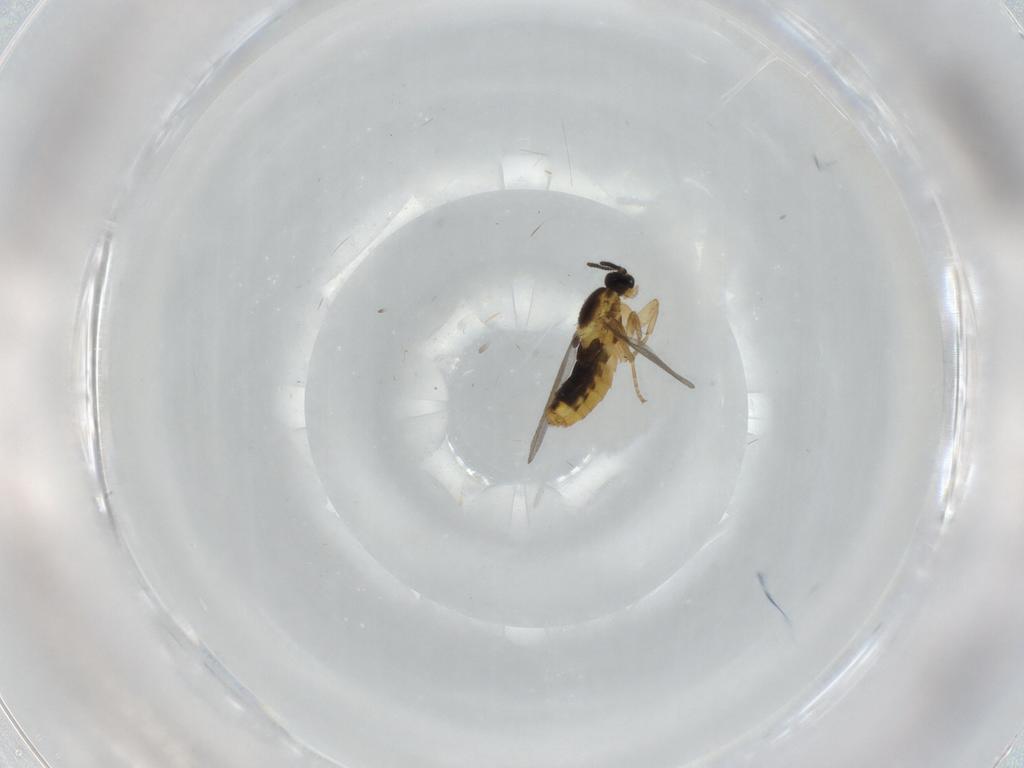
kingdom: Animalia
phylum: Arthropoda
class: Insecta
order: Diptera
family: Scatopsidae
